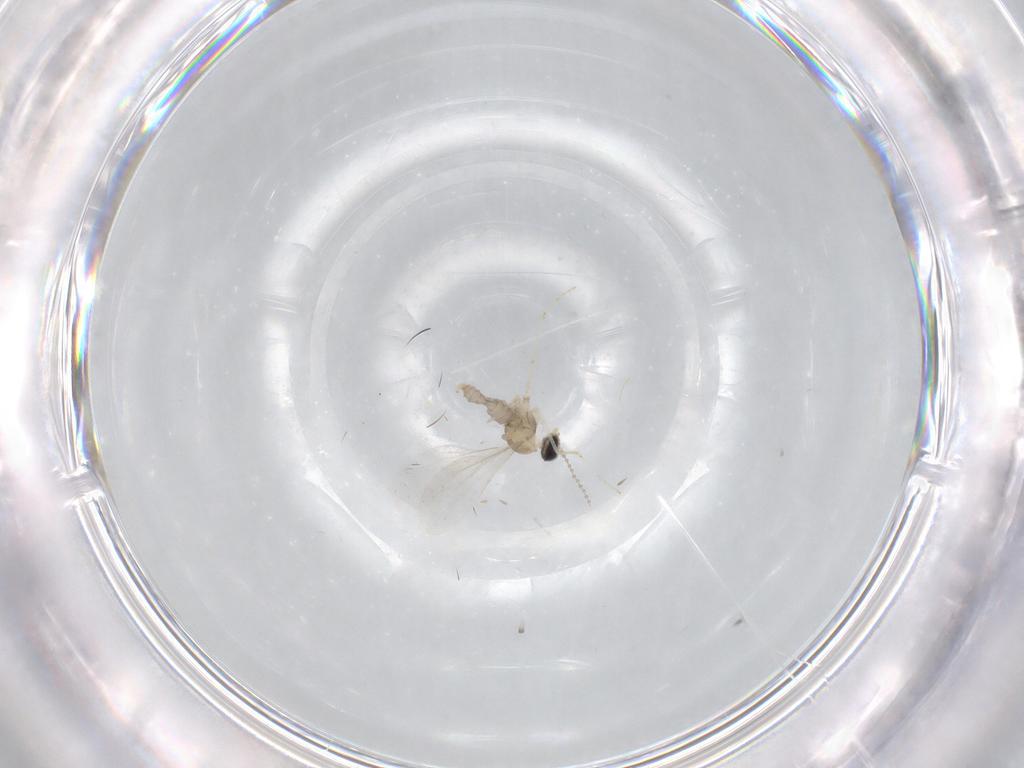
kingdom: Animalia
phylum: Arthropoda
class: Insecta
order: Diptera
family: Cecidomyiidae
